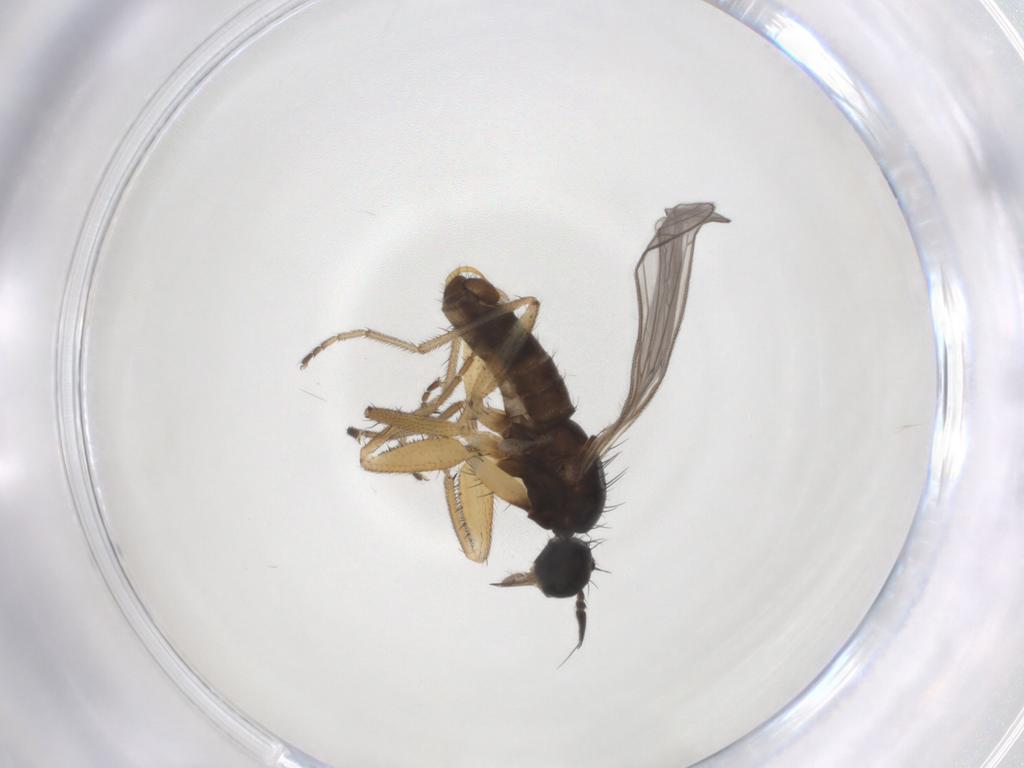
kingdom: Animalia
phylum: Arthropoda
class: Insecta
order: Diptera
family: Empididae
